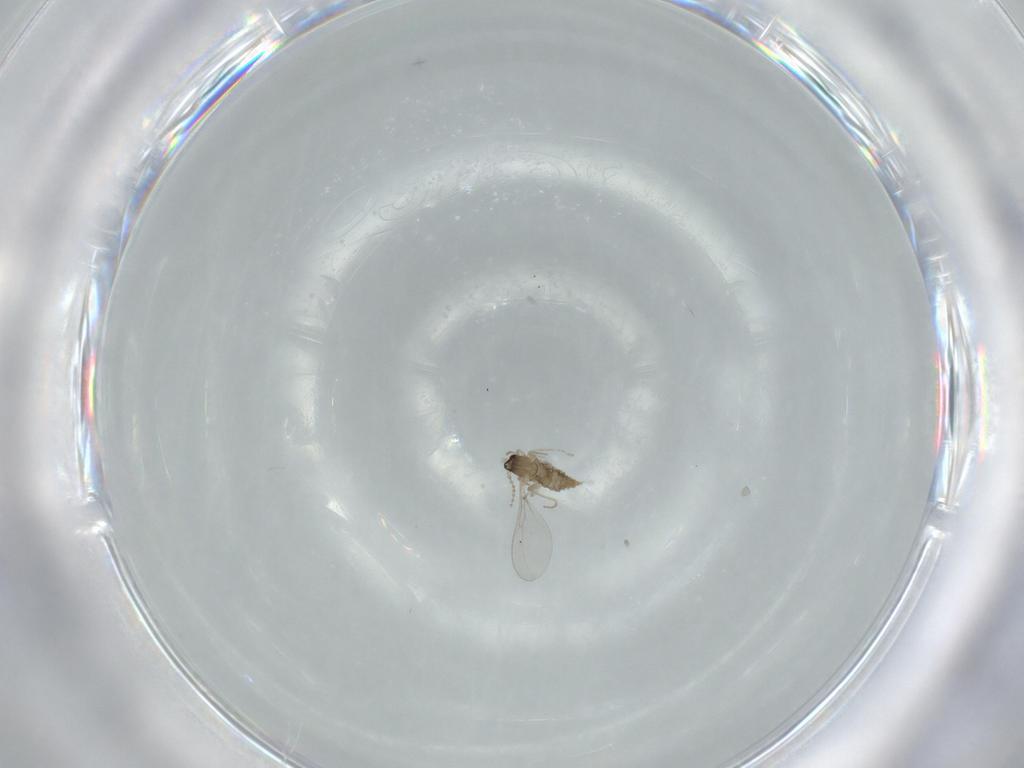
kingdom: Animalia
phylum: Arthropoda
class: Insecta
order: Diptera
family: Cecidomyiidae
